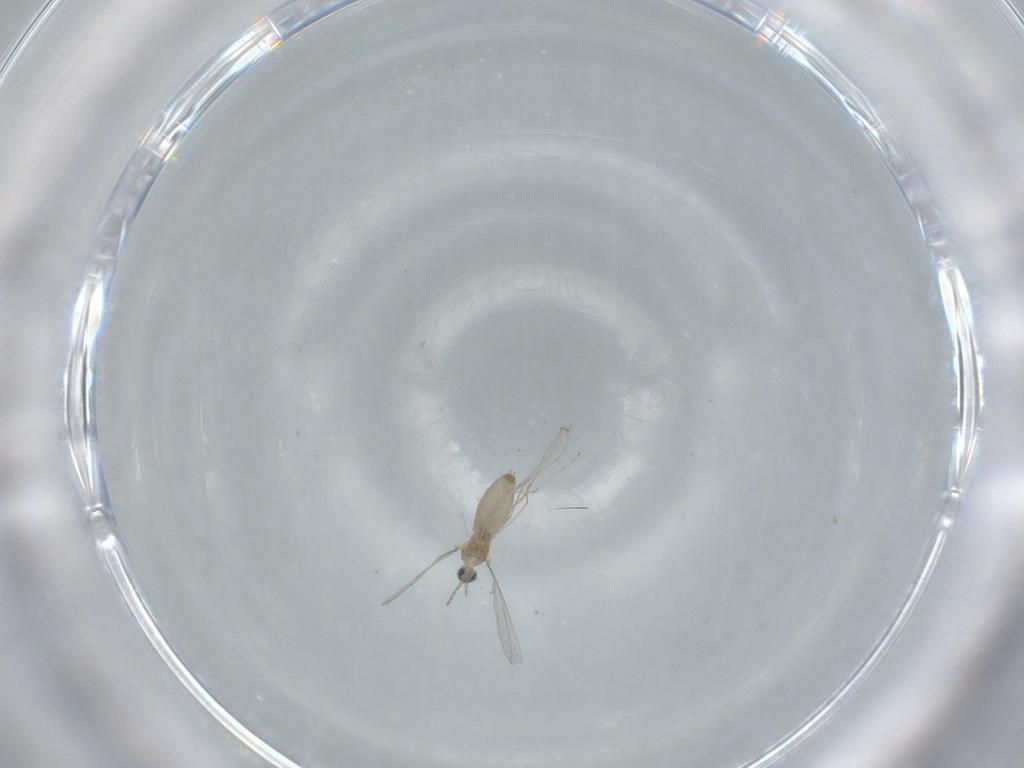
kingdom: Animalia
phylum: Arthropoda
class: Insecta
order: Diptera
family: Cecidomyiidae
